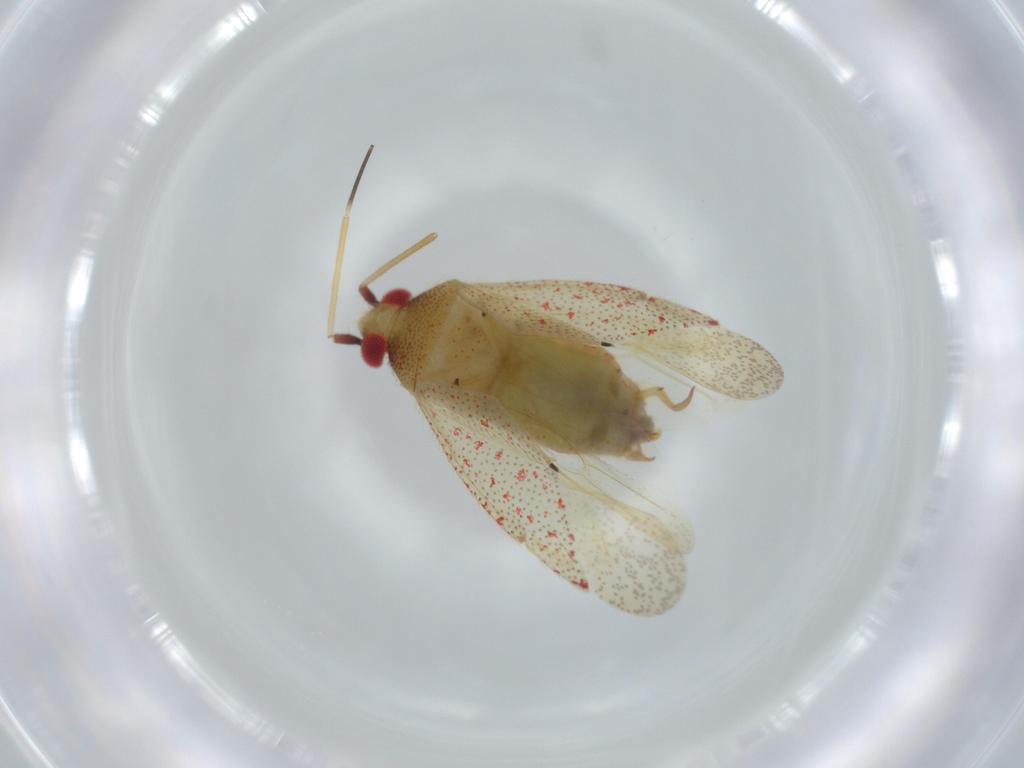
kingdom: Animalia
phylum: Arthropoda
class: Insecta
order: Hemiptera
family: Miridae
